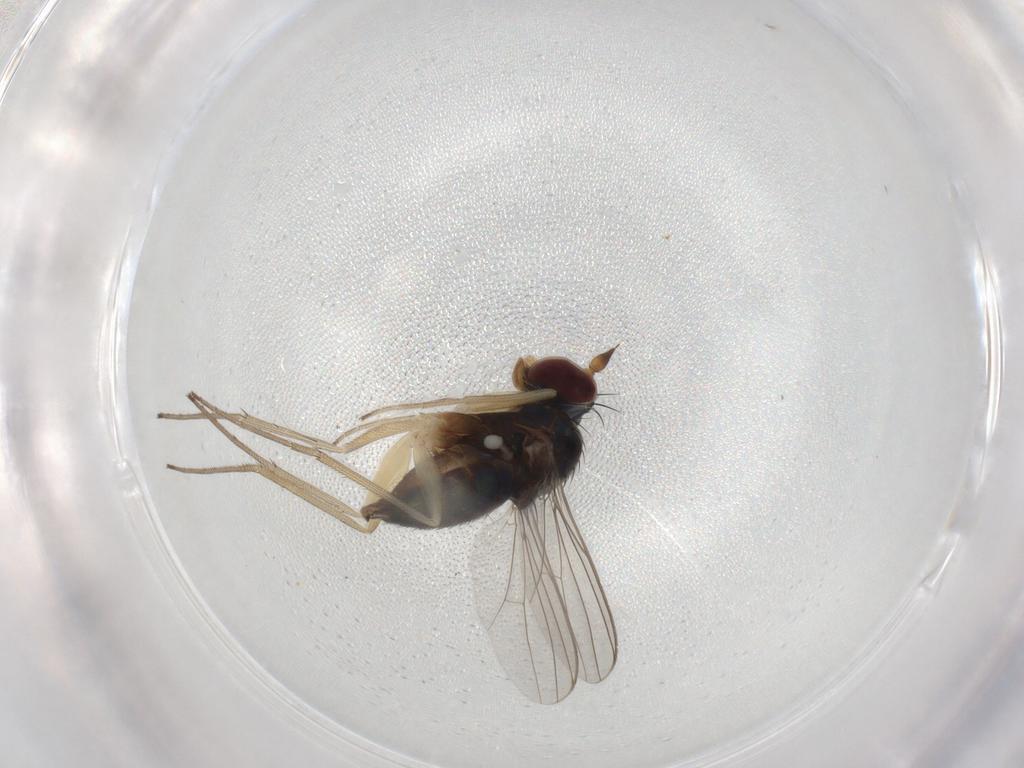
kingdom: Animalia
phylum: Arthropoda
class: Insecta
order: Diptera
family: Dolichopodidae
